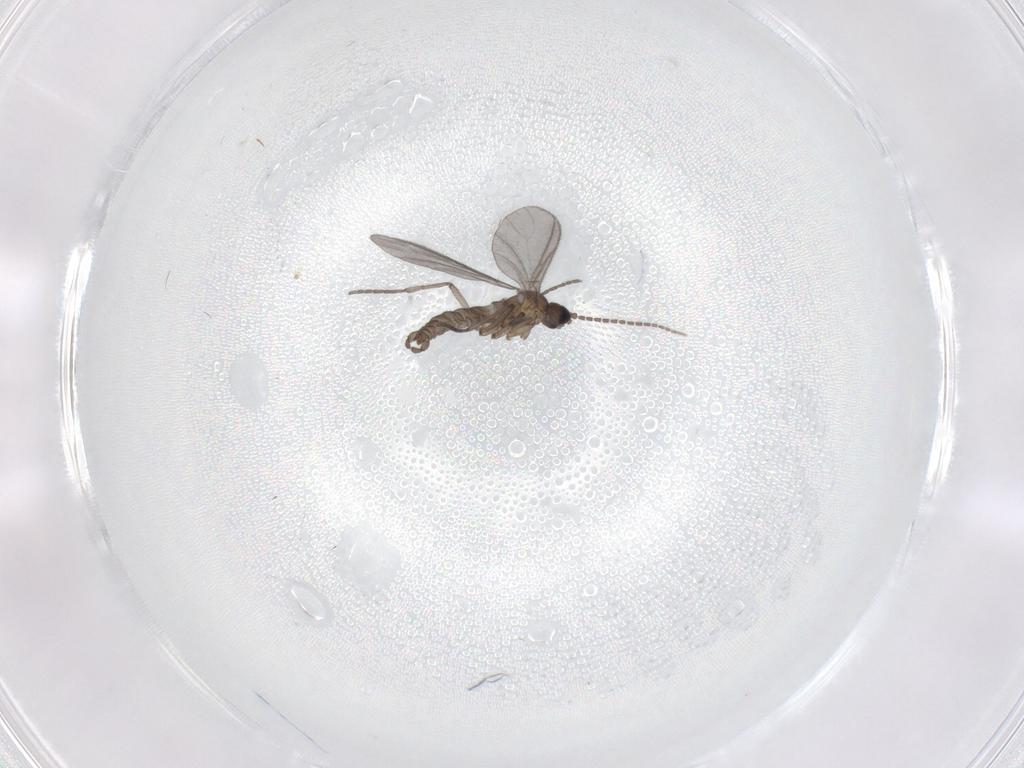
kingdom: Animalia
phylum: Arthropoda
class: Insecta
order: Diptera
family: Sciaridae
